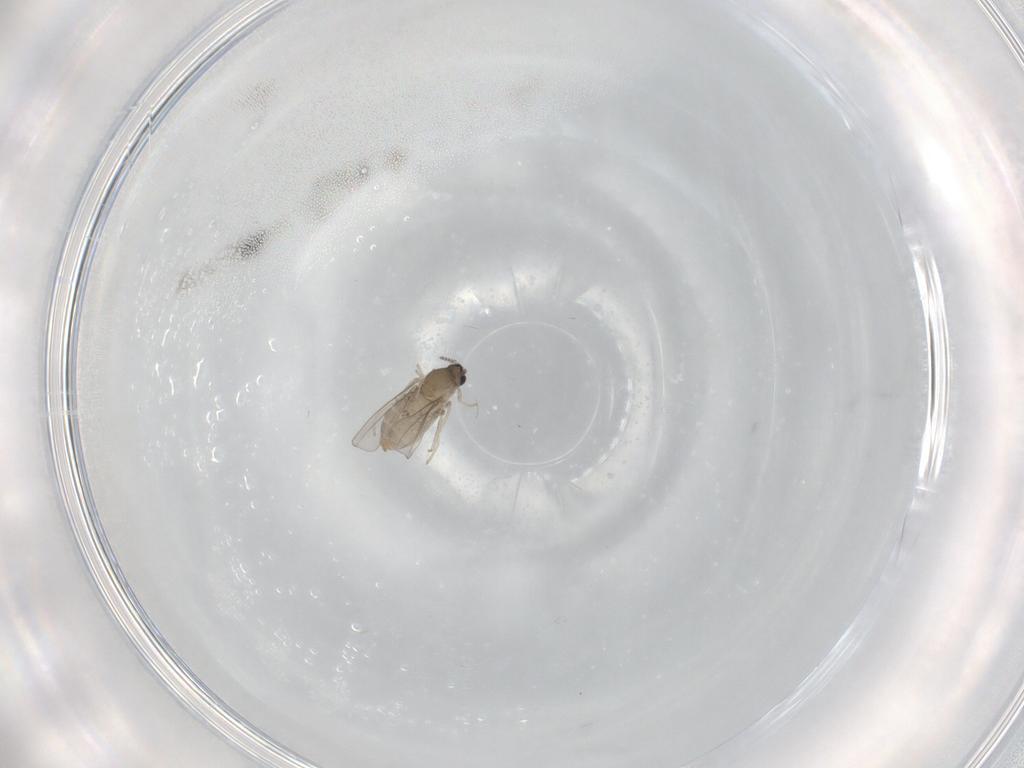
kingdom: Animalia
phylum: Arthropoda
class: Insecta
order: Diptera
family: Cecidomyiidae
